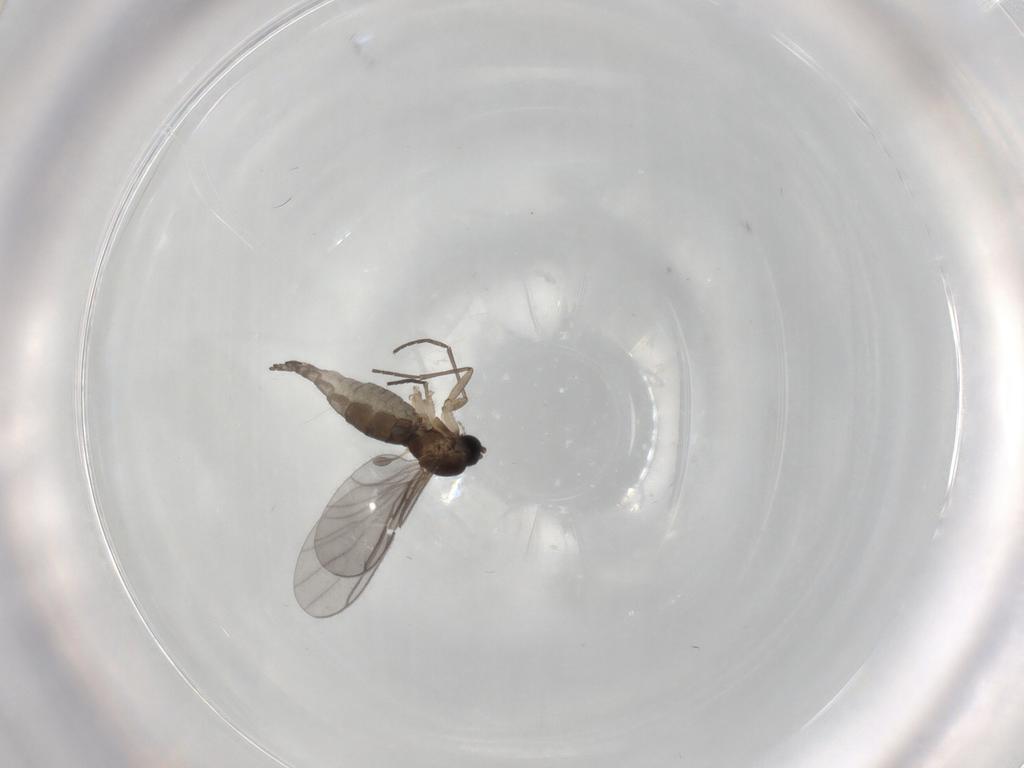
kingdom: Animalia
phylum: Arthropoda
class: Insecta
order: Diptera
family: Sciaridae
